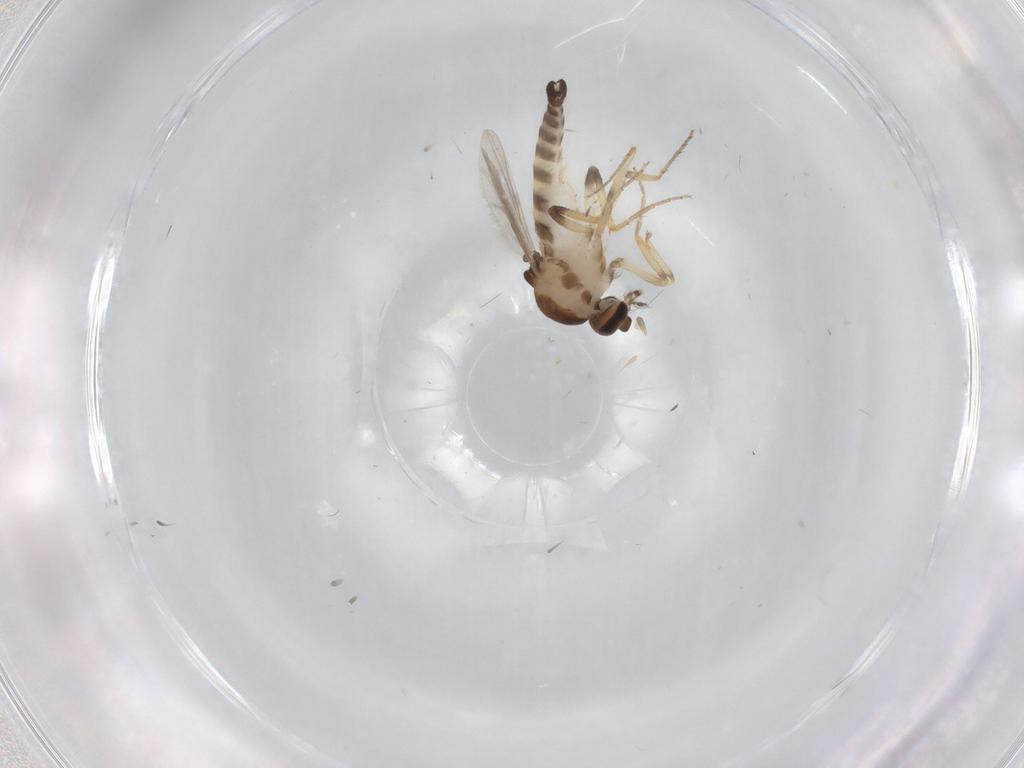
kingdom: Animalia
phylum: Arthropoda
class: Insecta
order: Diptera
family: Ceratopogonidae
